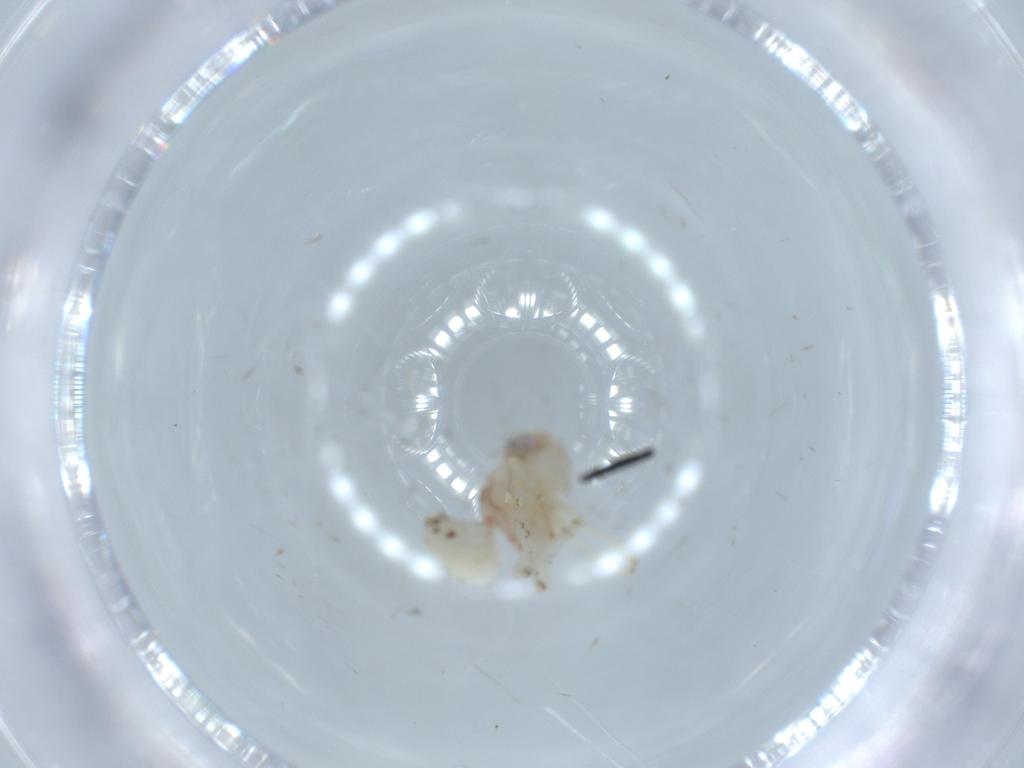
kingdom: Animalia
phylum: Arthropoda
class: Insecta
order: Hemiptera
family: Nogodinidae
